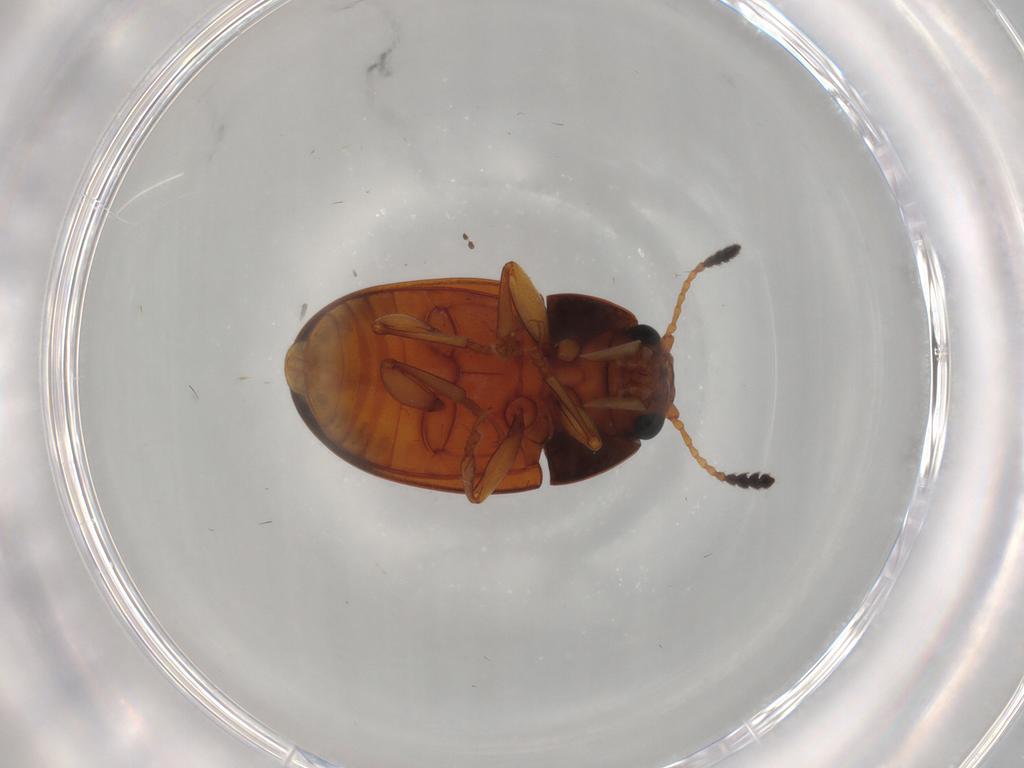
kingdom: Animalia
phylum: Arthropoda
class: Insecta
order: Coleoptera
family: Erotylidae
